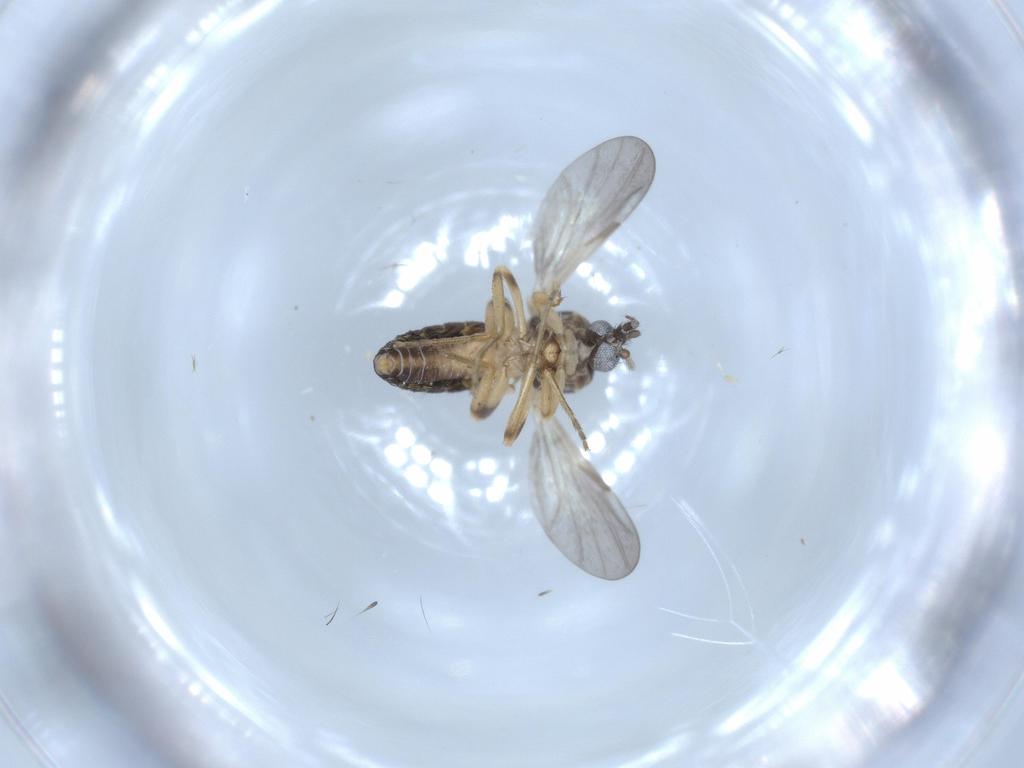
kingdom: Animalia
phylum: Arthropoda
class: Insecta
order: Diptera
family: Ceratopogonidae
